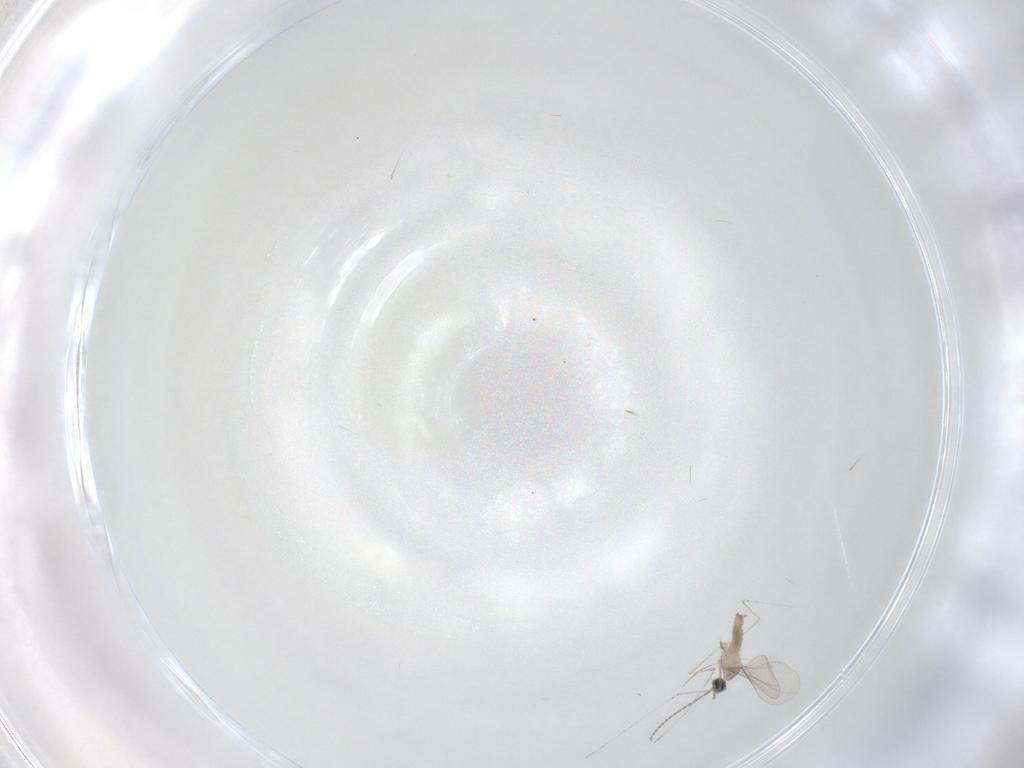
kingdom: Animalia
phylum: Arthropoda
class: Insecta
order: Diptera
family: Cecidomyiidae
